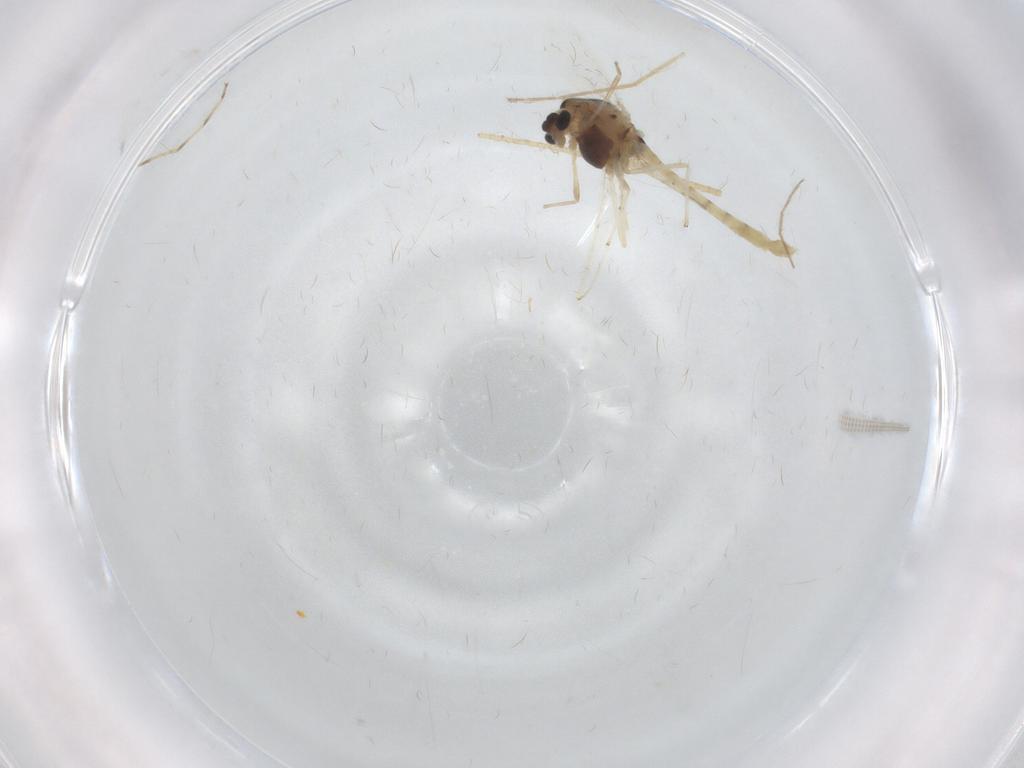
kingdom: Animalia
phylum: Arthropoda
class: Insecta
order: Diptera
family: Chironomidae
